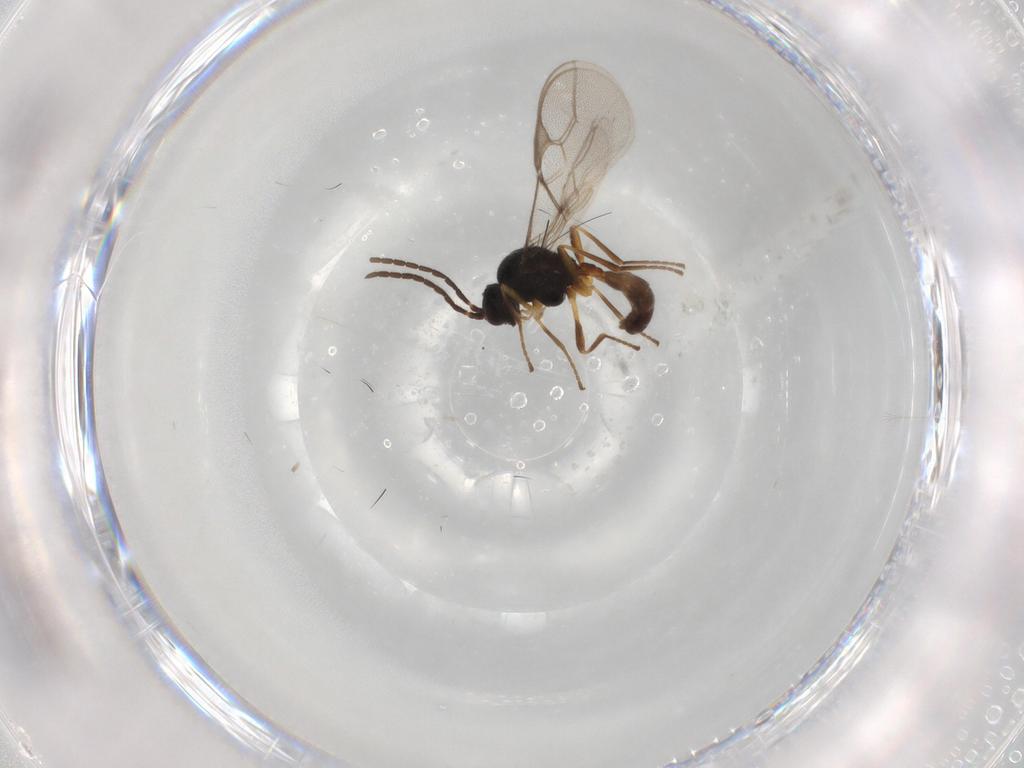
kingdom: Animalia
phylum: Arthropoda
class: Insecta
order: Hymenoptera
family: Braconidae
